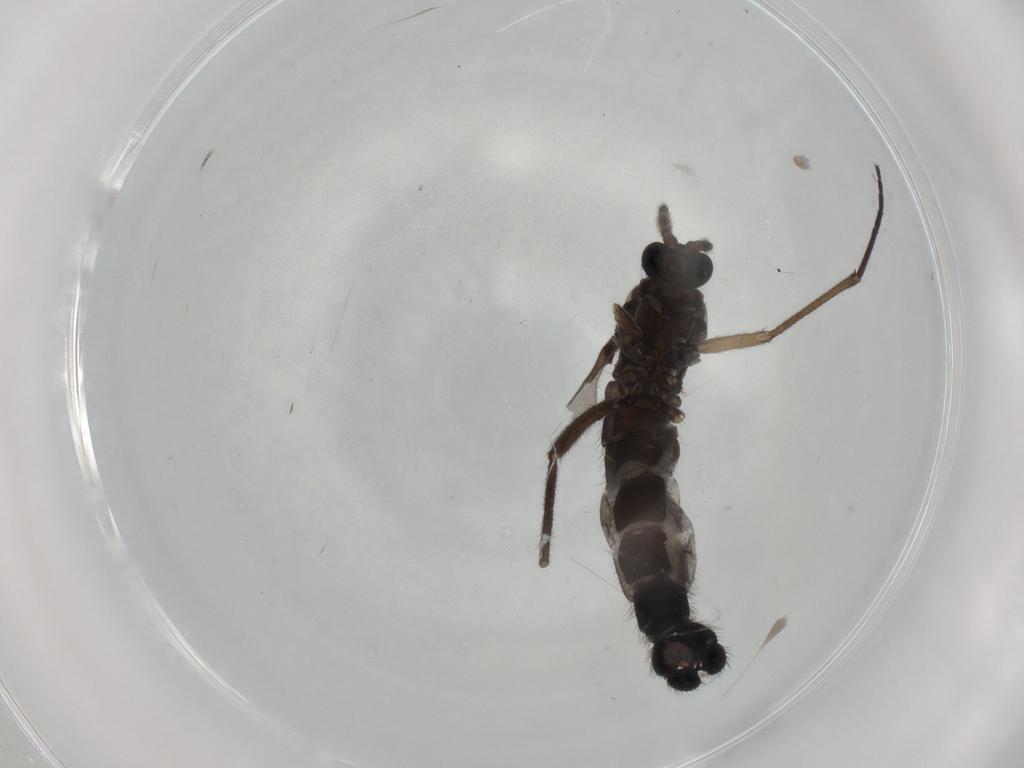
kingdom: Animalia
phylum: Arthropoda
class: Insecta
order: Diptera
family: Sciaridae
